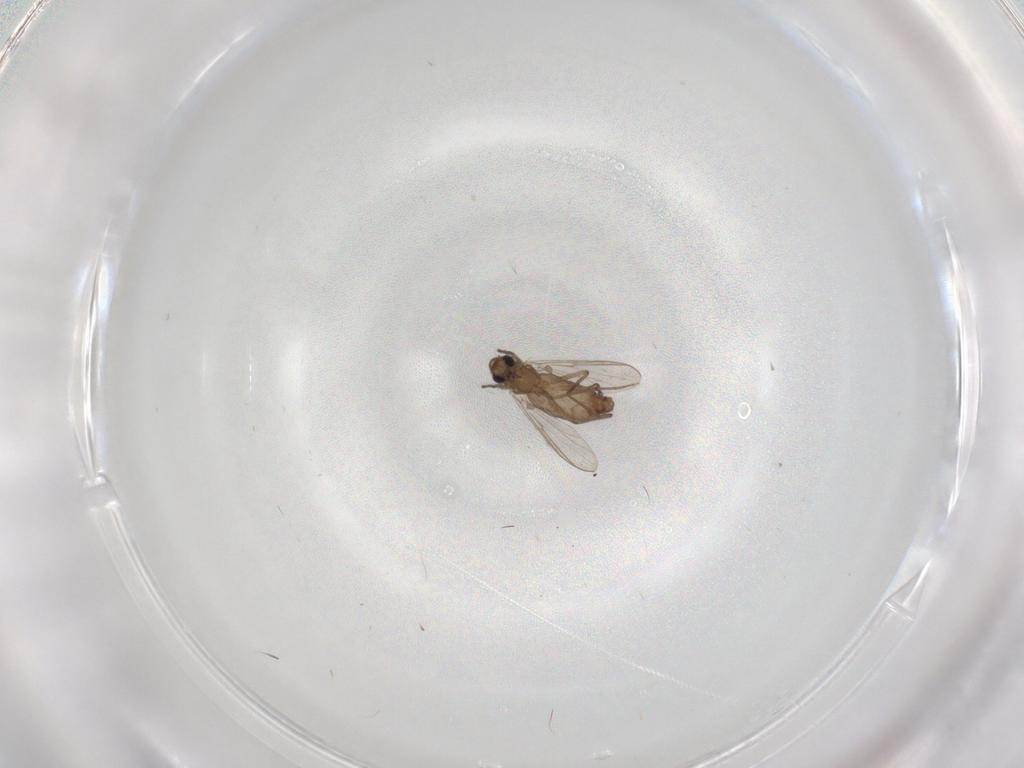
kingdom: Animalia
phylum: Arthropoda
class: Insecta
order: Diptera
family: Chironomidae
